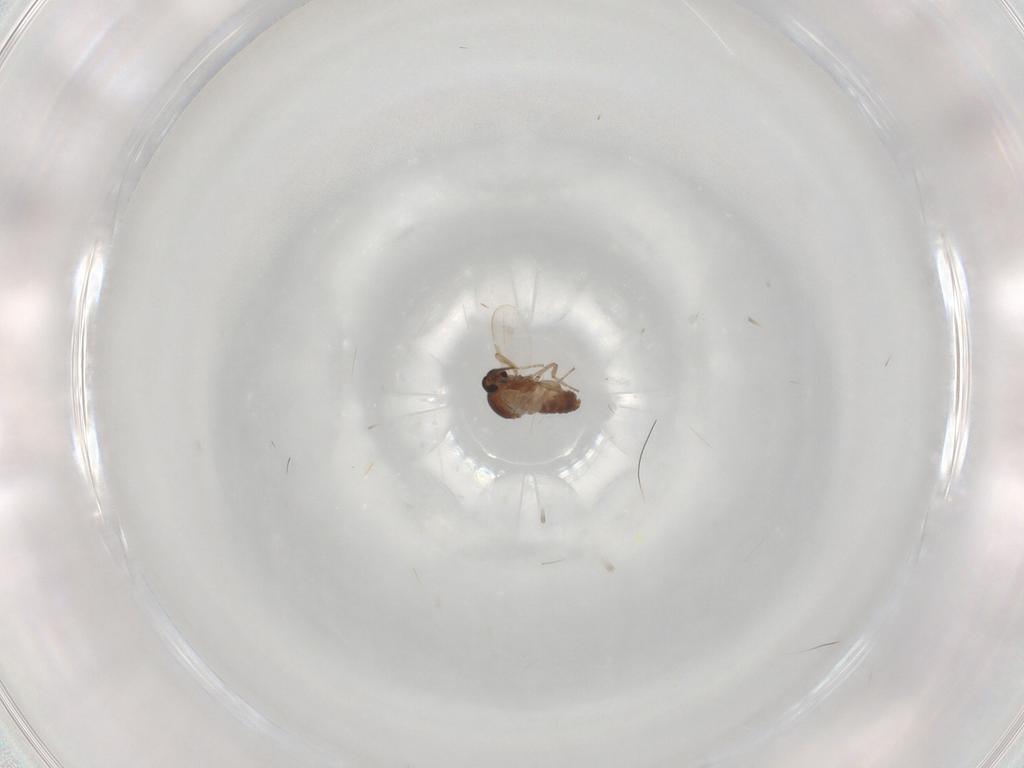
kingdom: Animalia
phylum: Arthropoda
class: Insecta
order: Diptera
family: Ceratopogonidae
